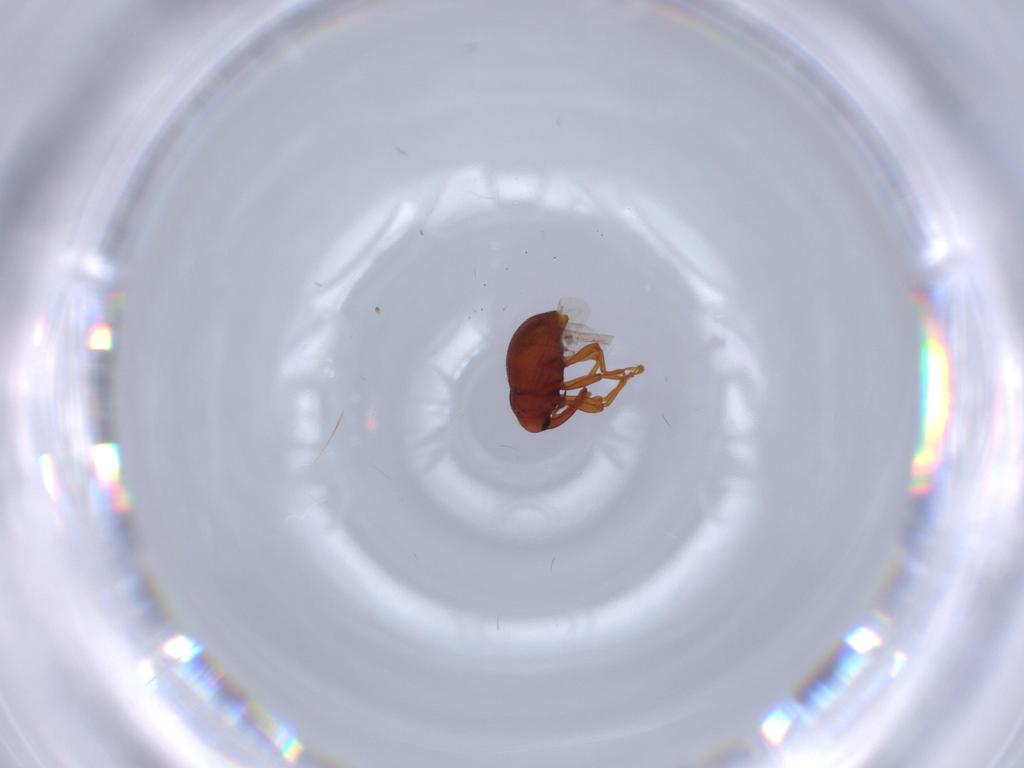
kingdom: Animalia
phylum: Arthropoda
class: Insecta
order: Coleoptera
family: Curculionidae
